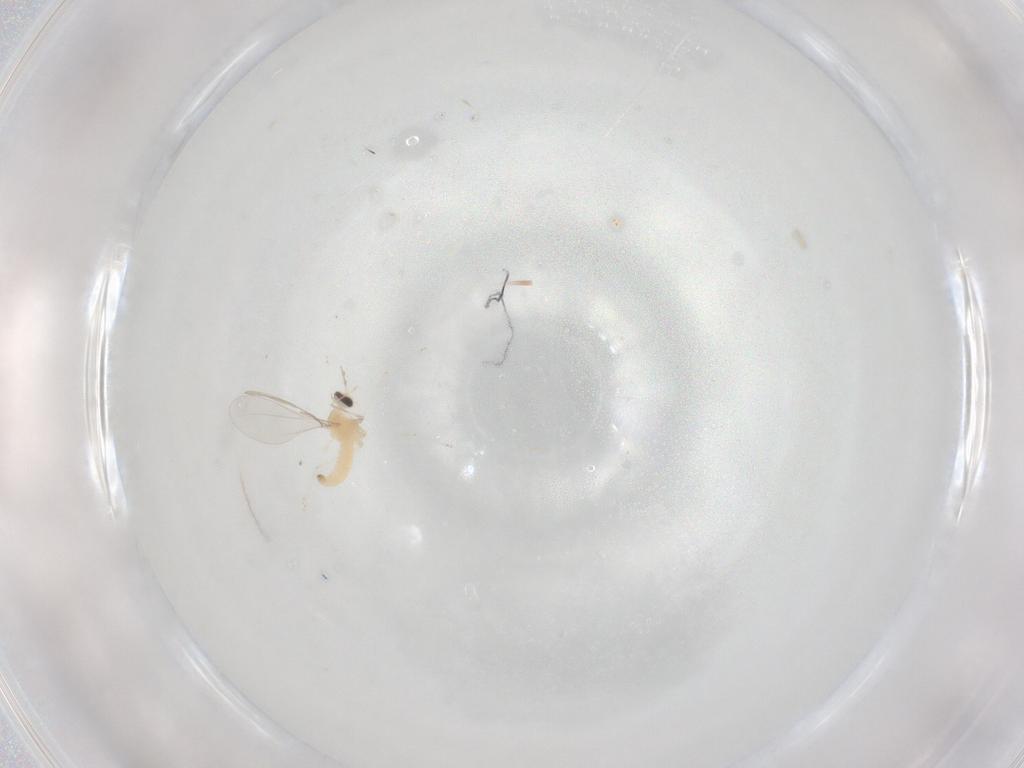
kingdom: Animalia
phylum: Arthropoda
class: Insecta
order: Diptera
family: Cecidomyiidae
